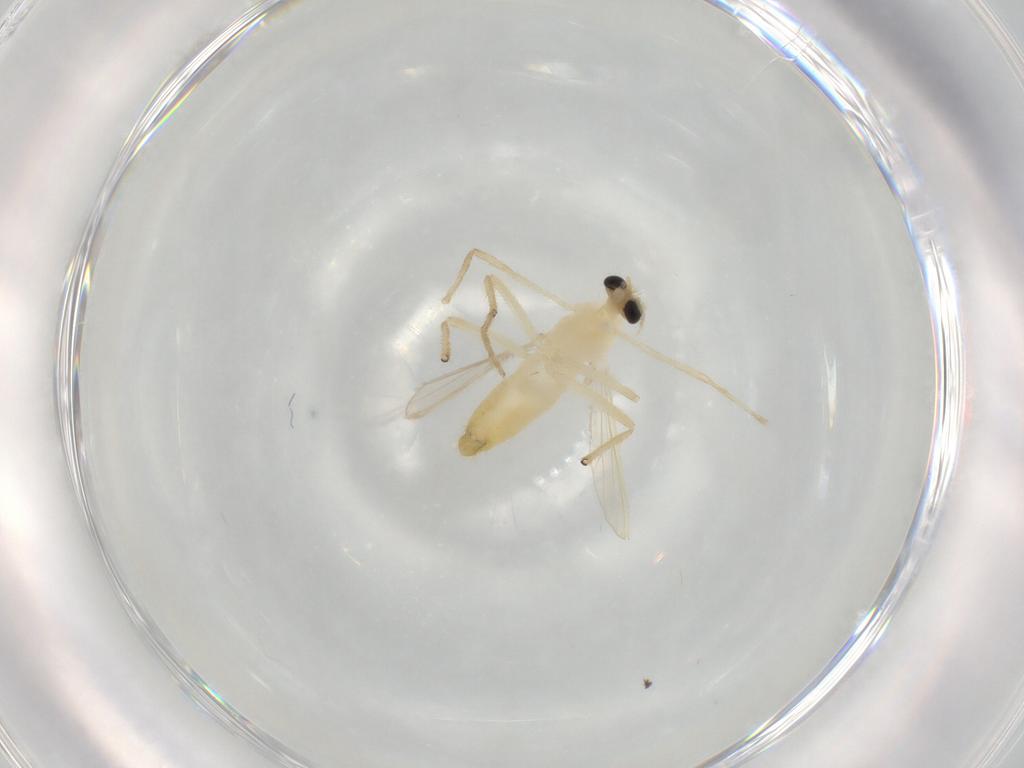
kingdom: Animalia
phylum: Arthropoda
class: Insecta
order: Diptera
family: Chironomidae
